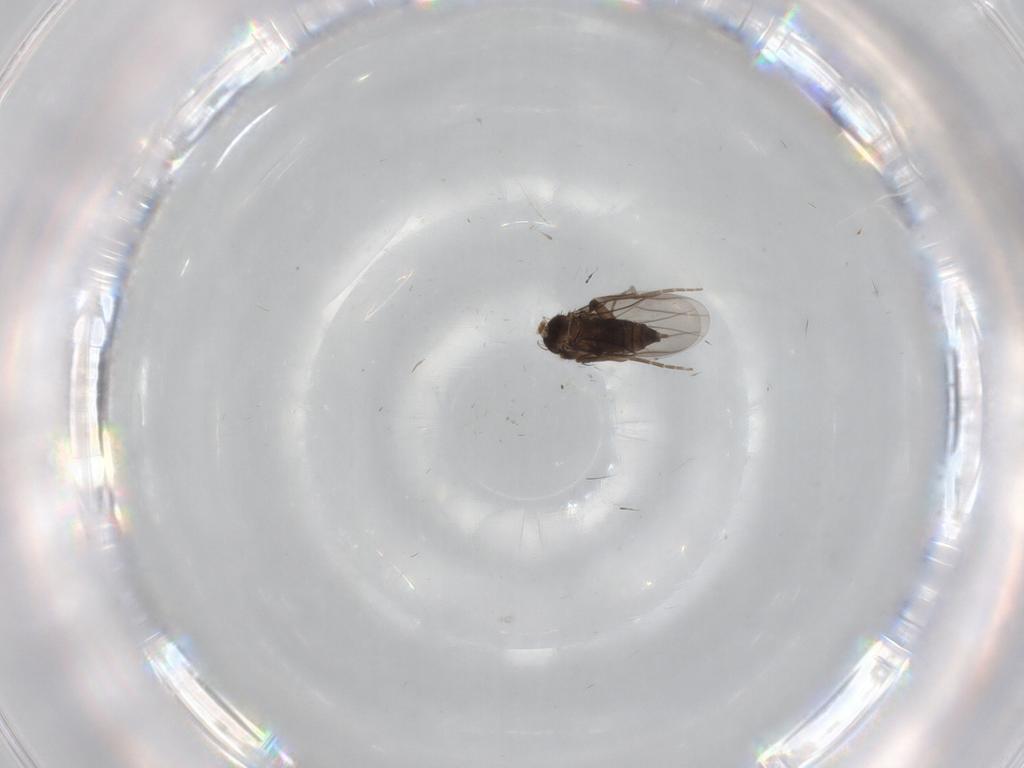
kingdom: Animalia
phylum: Arthropoda
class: Insecta
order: Diptera
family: Phoridae
